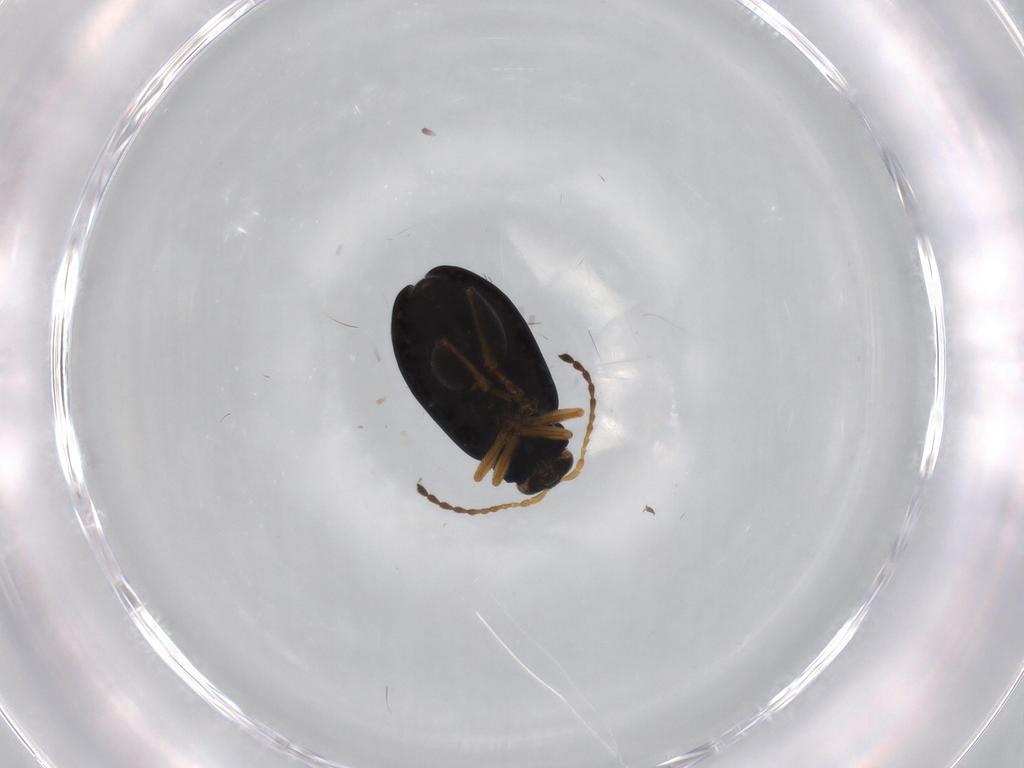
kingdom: Animalia
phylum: Arthropoda
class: Insecta
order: Coleoptera
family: Chrysomelidae
